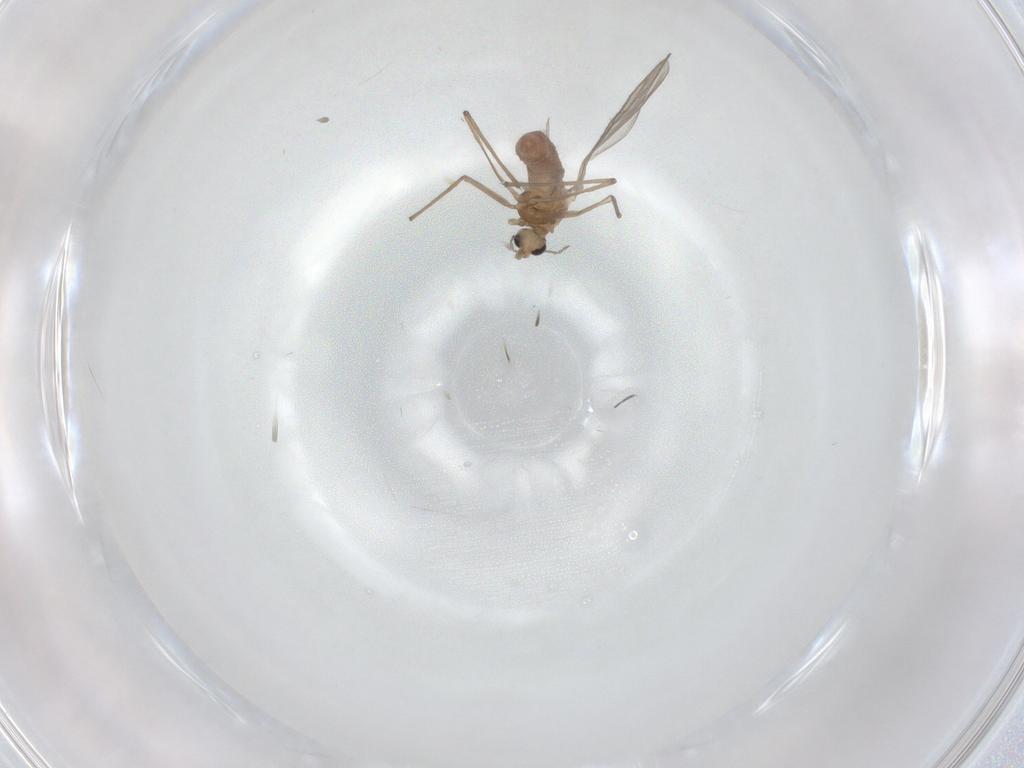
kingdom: Animalia
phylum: Arthropoda
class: Insecta
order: Diptera
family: Chironomidae
